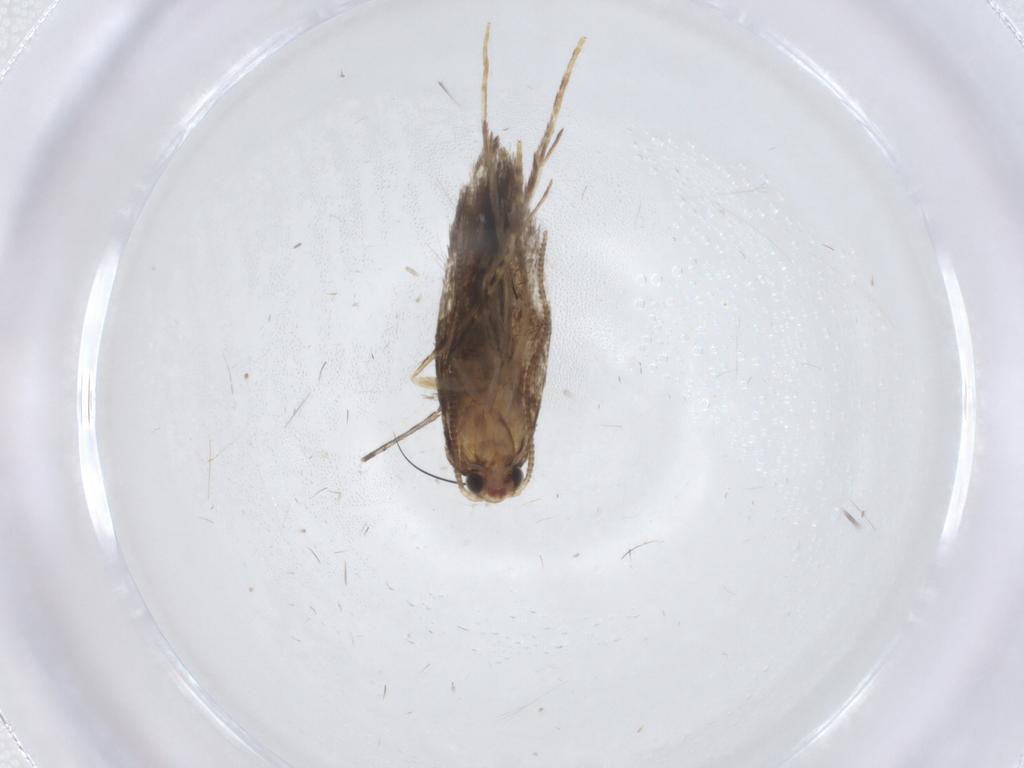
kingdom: Animalia
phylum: Arthropoda
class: Insecta
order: Lepidoptera
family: Tineidae
